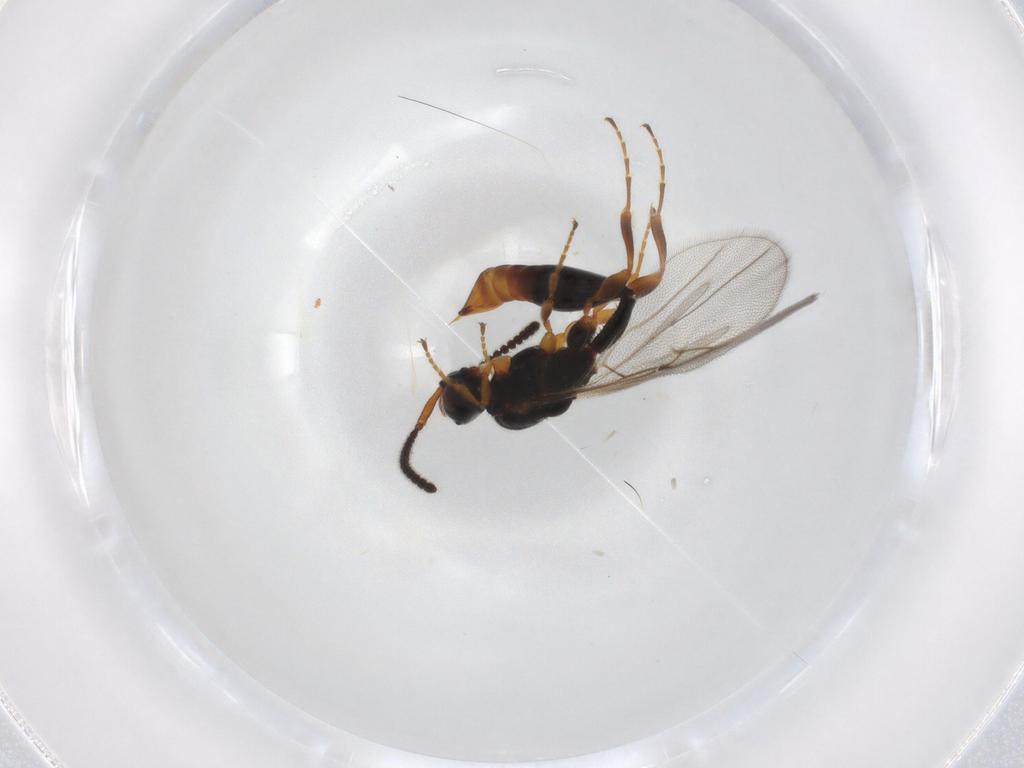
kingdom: Animalia
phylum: Arthropoda
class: Insecta
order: Hymenoptera
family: Diapriidae
